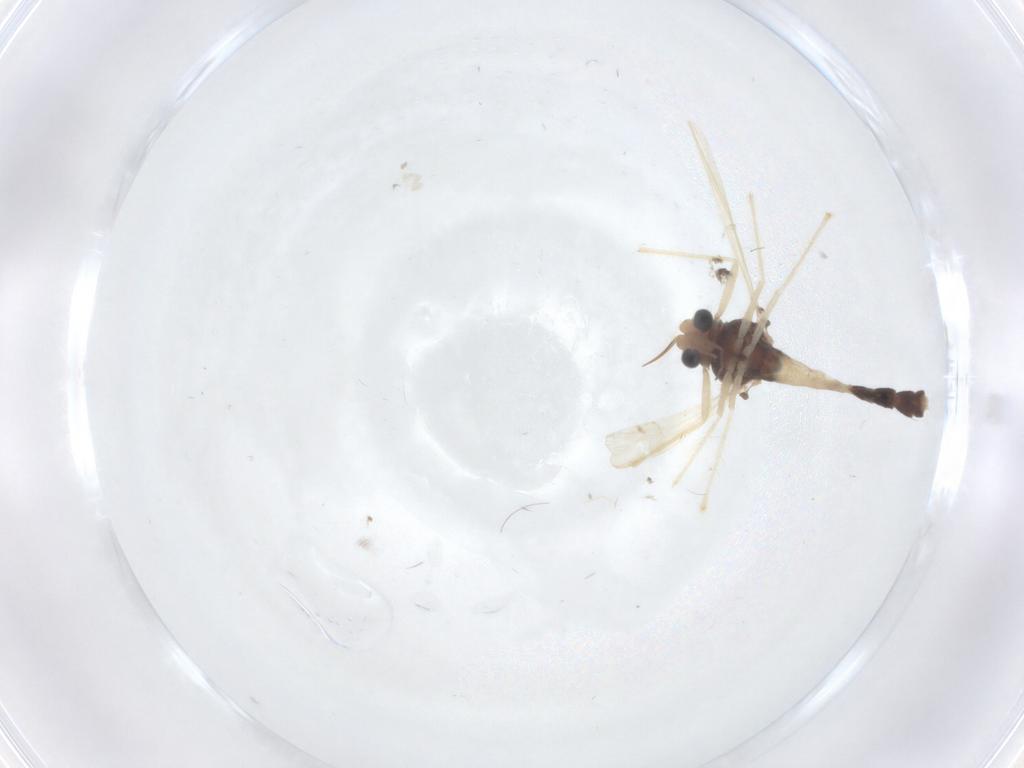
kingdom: Animalia
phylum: Arthropoda
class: Insecta
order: Diptera
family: Chironomidae
